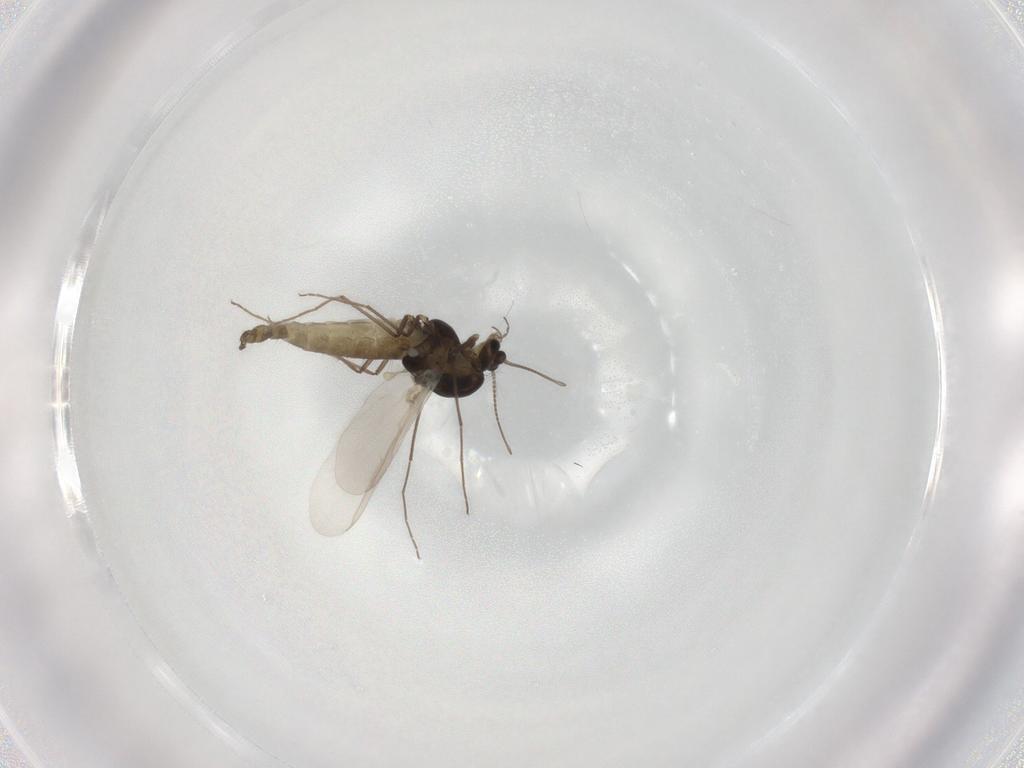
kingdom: Animalia
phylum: Arthropoda
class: Insecta
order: Diptera
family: Chironomidae
